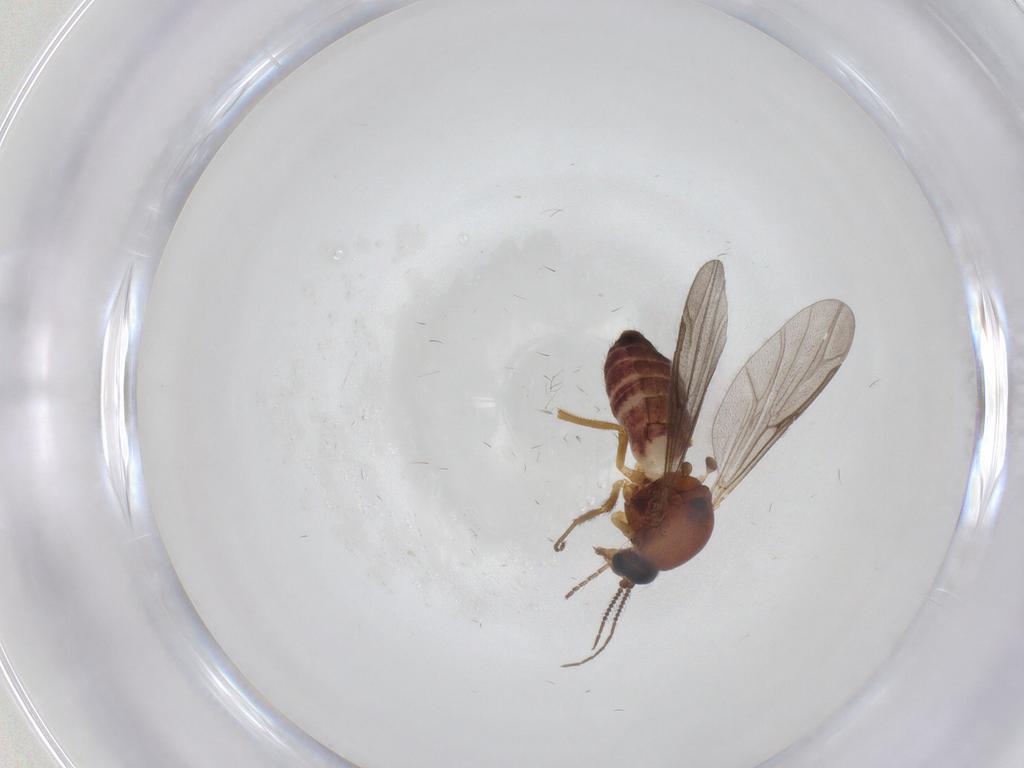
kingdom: Animalia
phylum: Arthropoda
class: Insecta
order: Diptera
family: Ceratopogonidae
